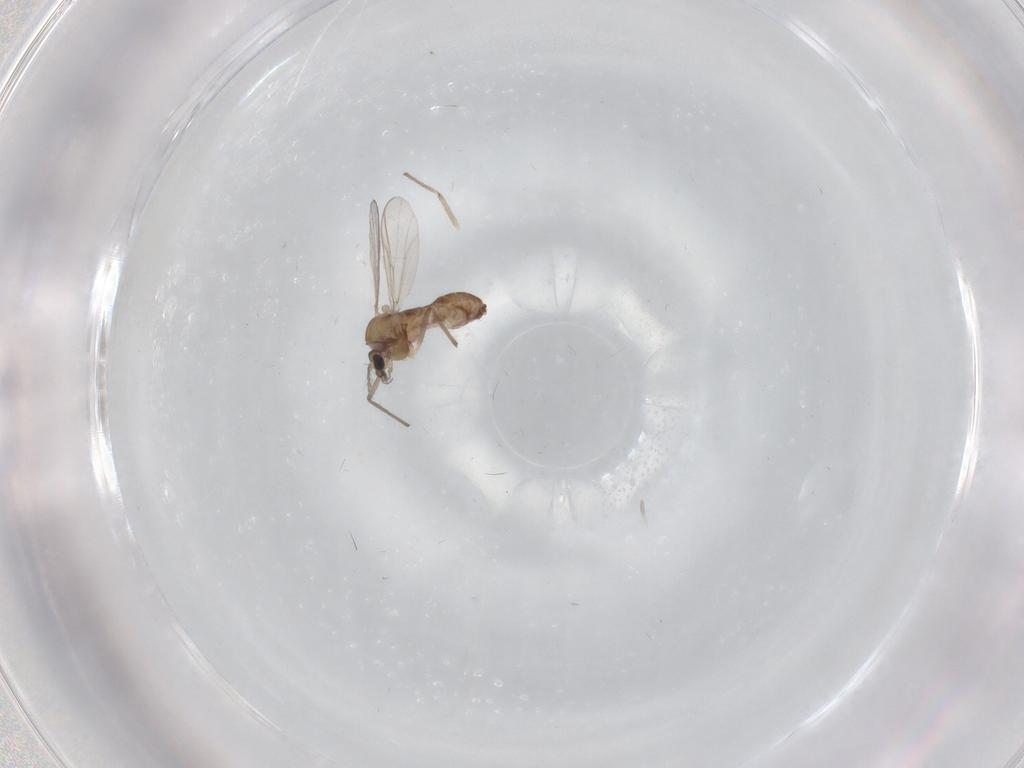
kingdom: Animalia
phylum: Arthropoda
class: Insecta
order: Diptera
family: Chironomidae
